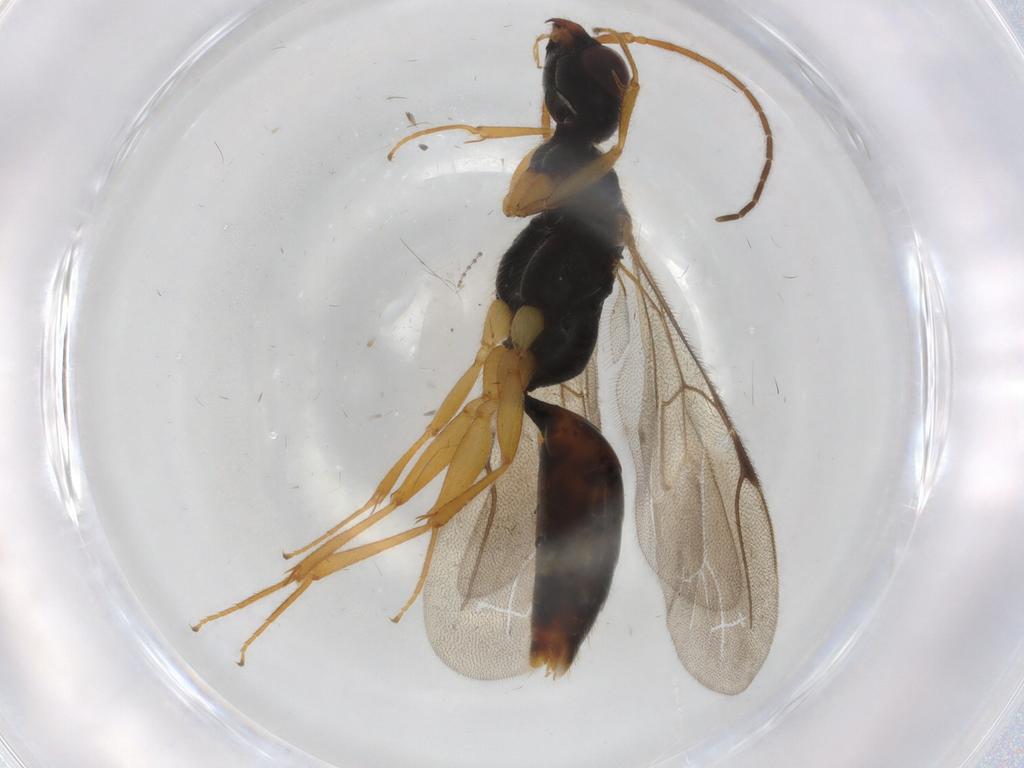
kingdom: Animalia
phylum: Arthropoda
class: Insecta
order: Hymenoptera
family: Bethylidae
